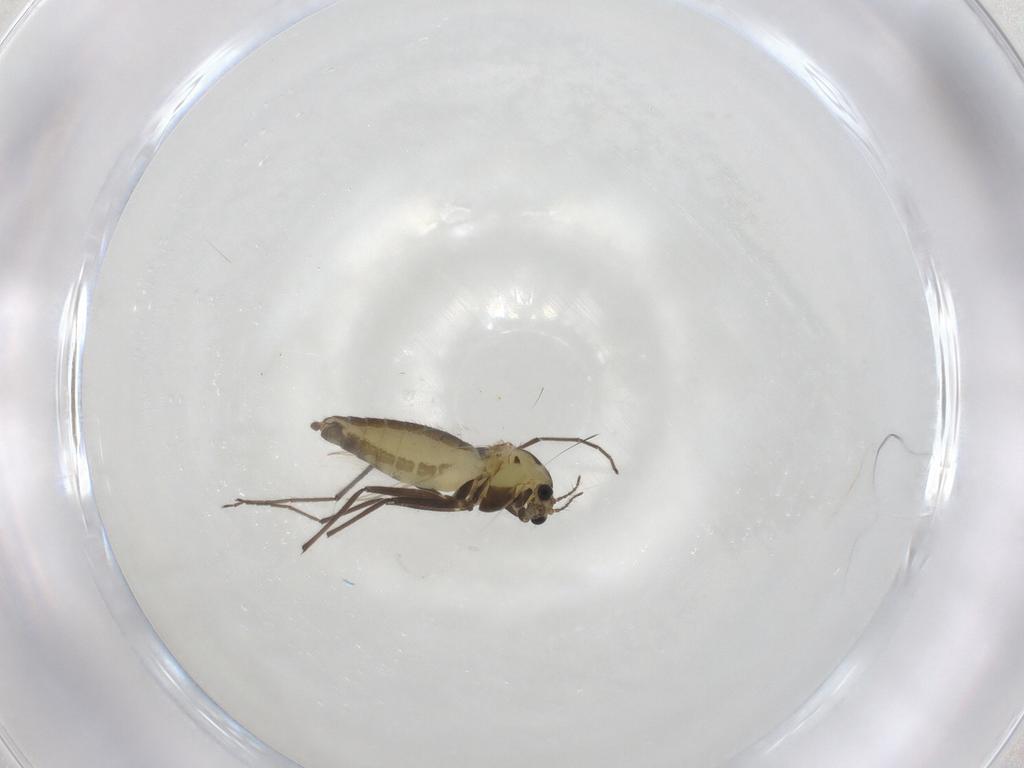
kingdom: Animalia
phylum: Arthropoda
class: Insecta
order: Diptera
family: Chironomidae
